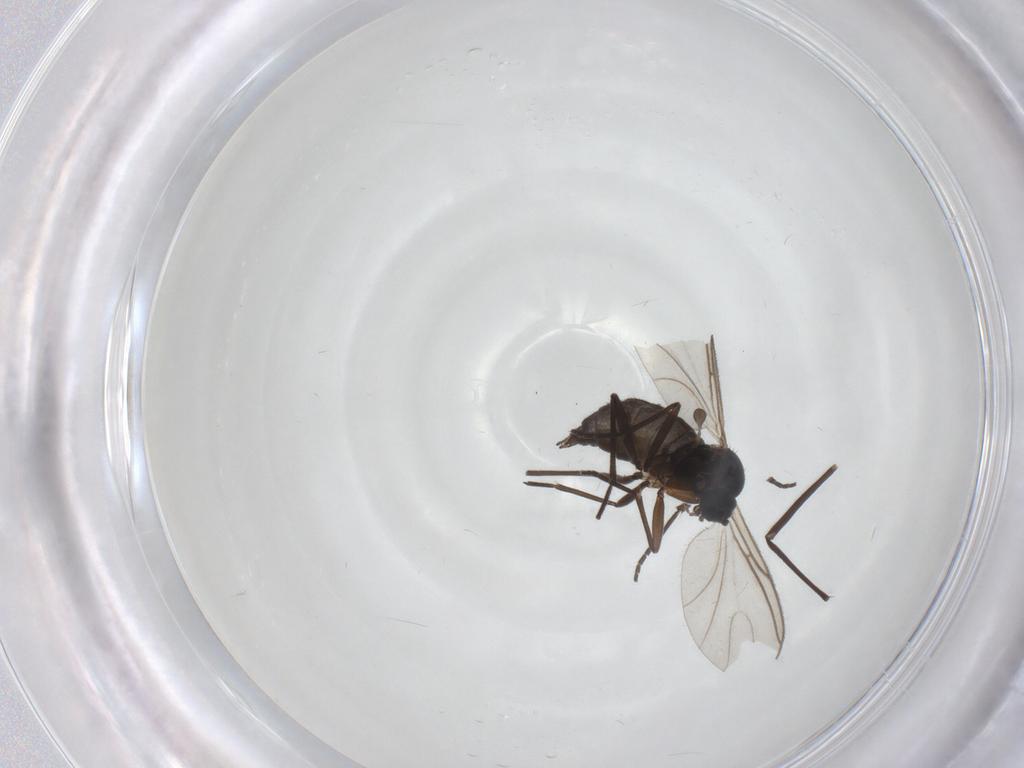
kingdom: Animalia
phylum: Arthropoda
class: Insecta
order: Diptera
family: Sciaridae
